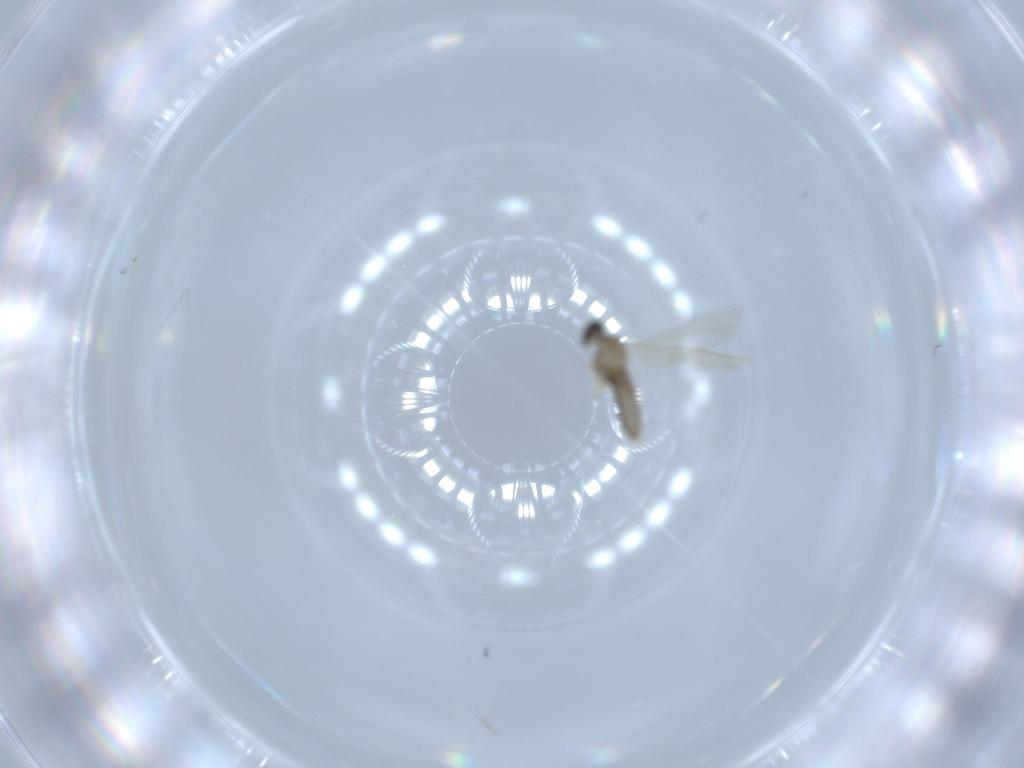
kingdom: Animalia
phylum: Arthropoda
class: Insecta
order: Diptera
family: Cecidomyiidae
